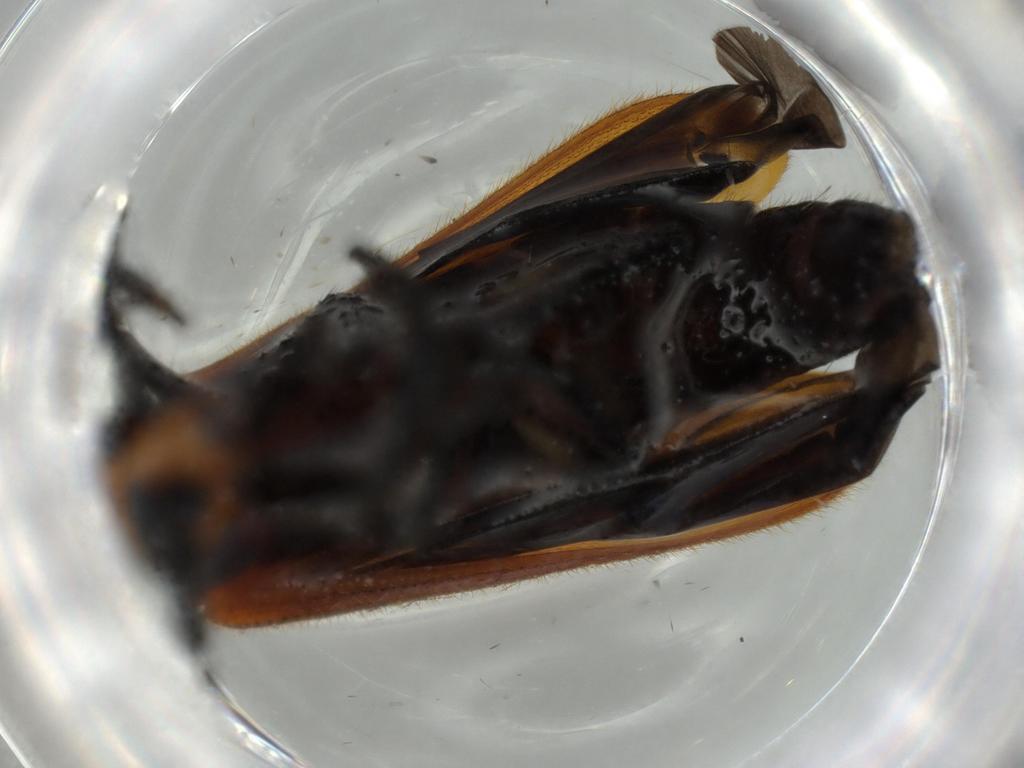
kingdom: Animalia
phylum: Arthropoda
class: Insecta
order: Coleoptera
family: Cleridae
